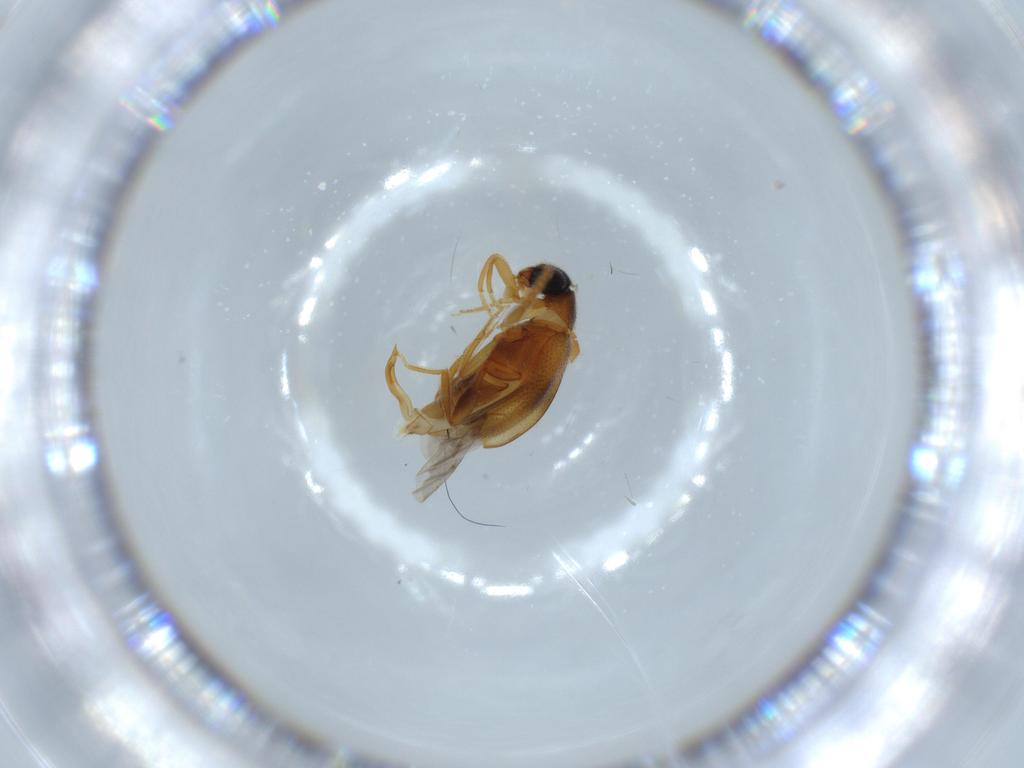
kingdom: Animalia
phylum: Arthropoda
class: Insecta
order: Coleoptera
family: Aderidae
